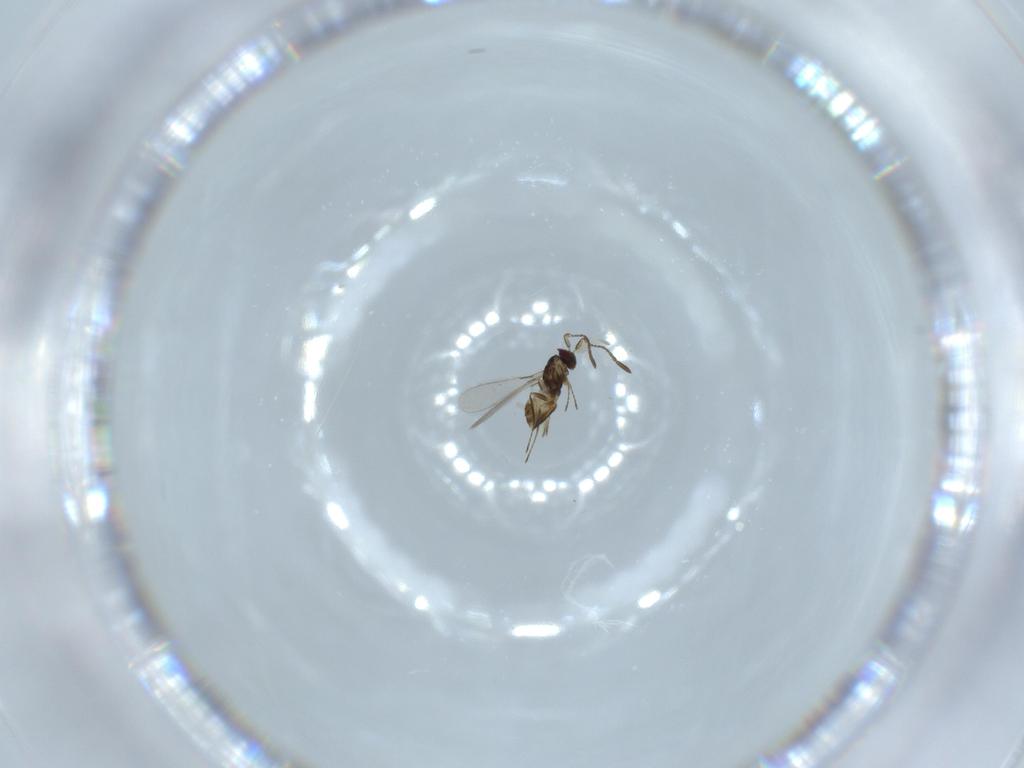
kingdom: Animalia
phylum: Arthropoda
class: Insecta
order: Hymenoptera
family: Mymaridae
